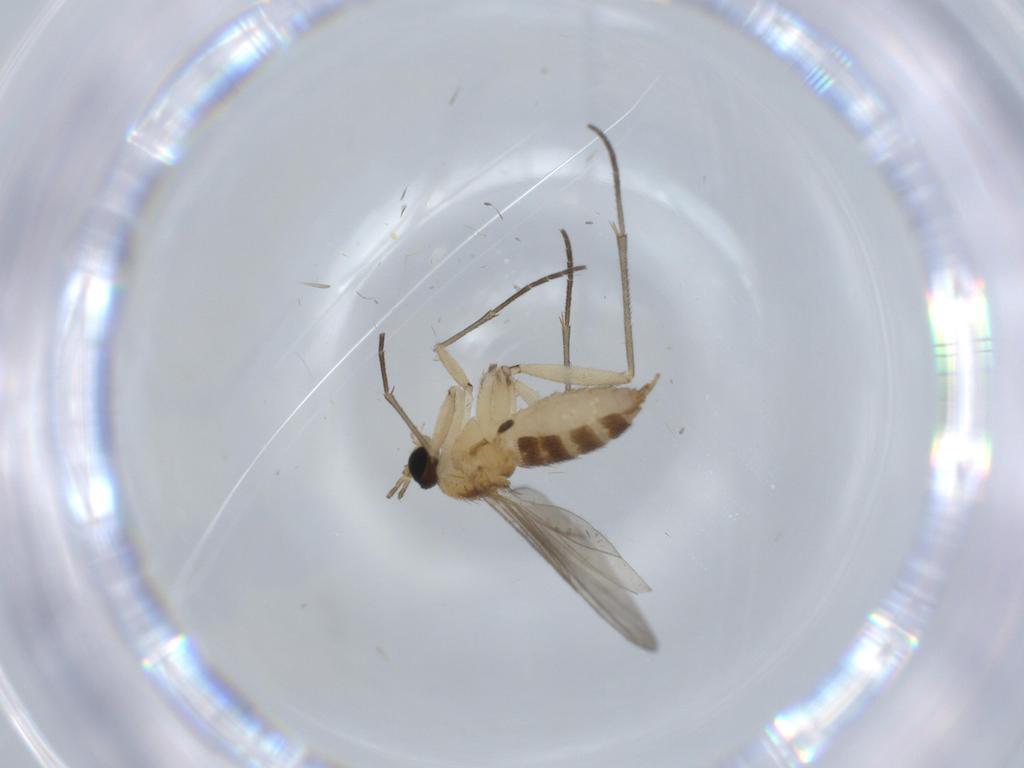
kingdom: Animalia
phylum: Arthropoda
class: Insecta
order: Diptera
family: Sciaridae
